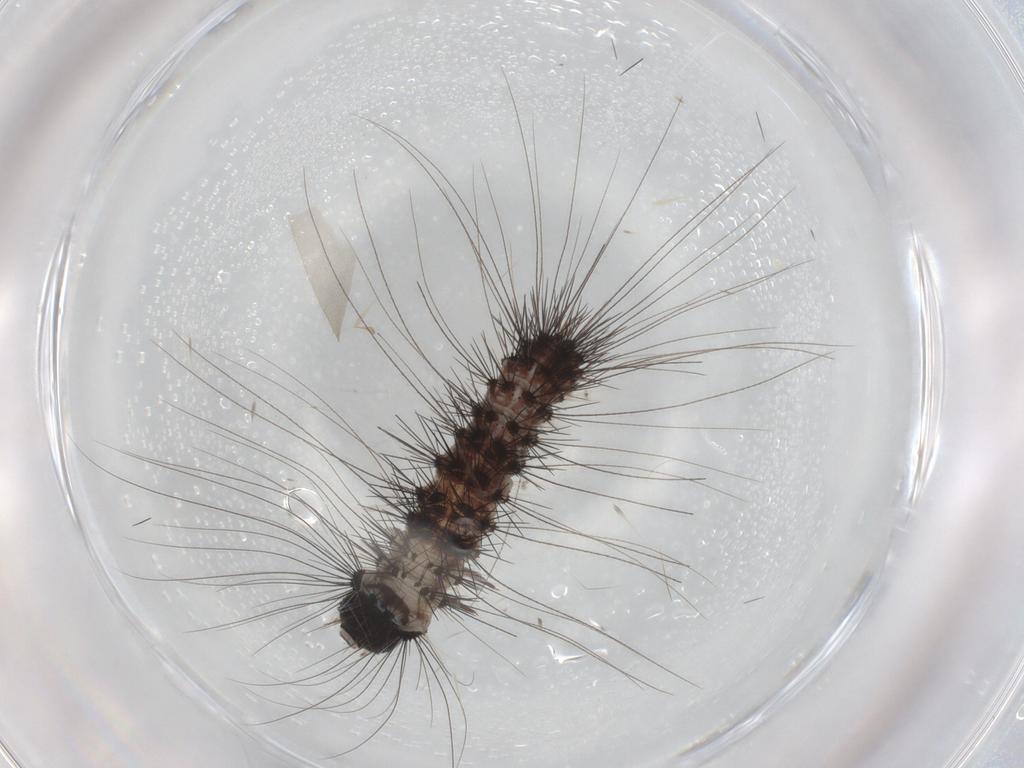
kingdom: Animalia
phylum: Arthropoda
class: Insecta
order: Lepidoptera
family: Erebidae
